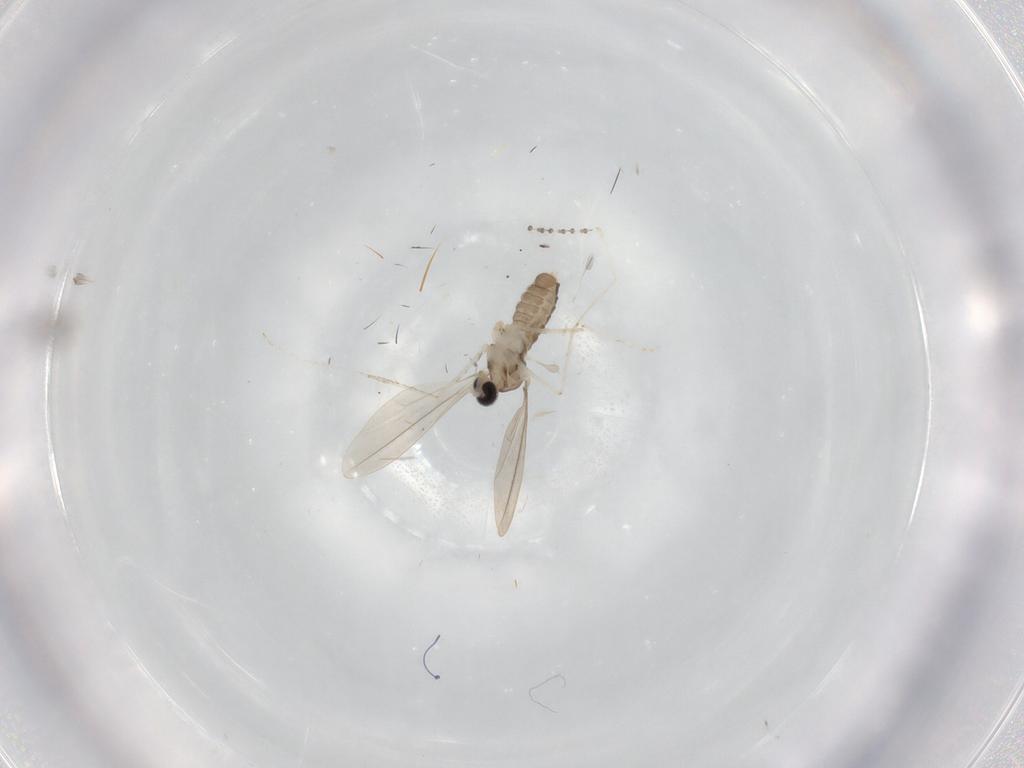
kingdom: Animalia
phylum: Arthropoda
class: Insecta
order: Diptera
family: Cecidomyiidae
